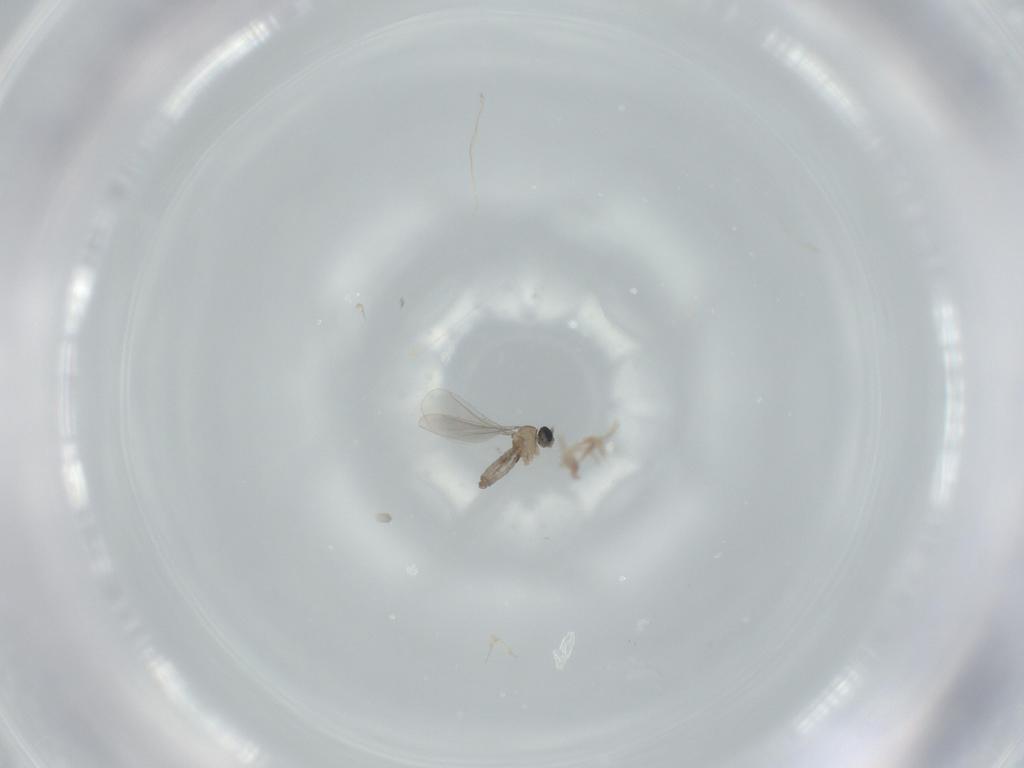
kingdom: Animalia
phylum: Arthropoda
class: Insecta
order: Diptera
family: Cecidomyiidae
